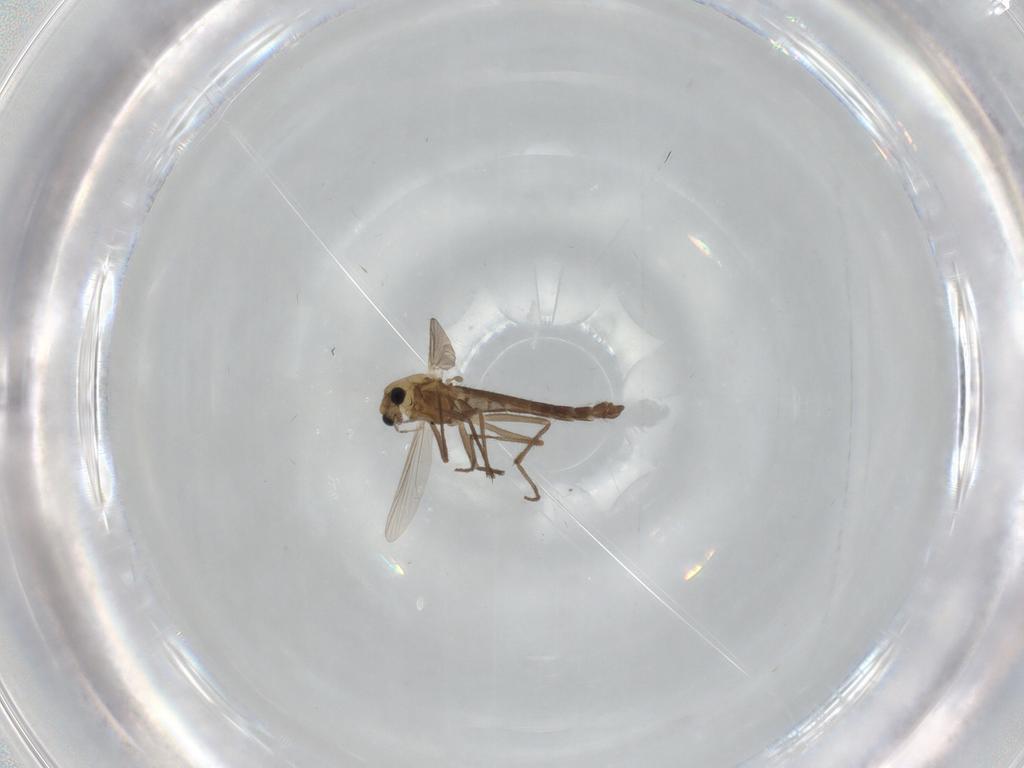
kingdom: Animalia
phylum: Arthropoda
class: Insecta
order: Diptera
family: Chironomidae
